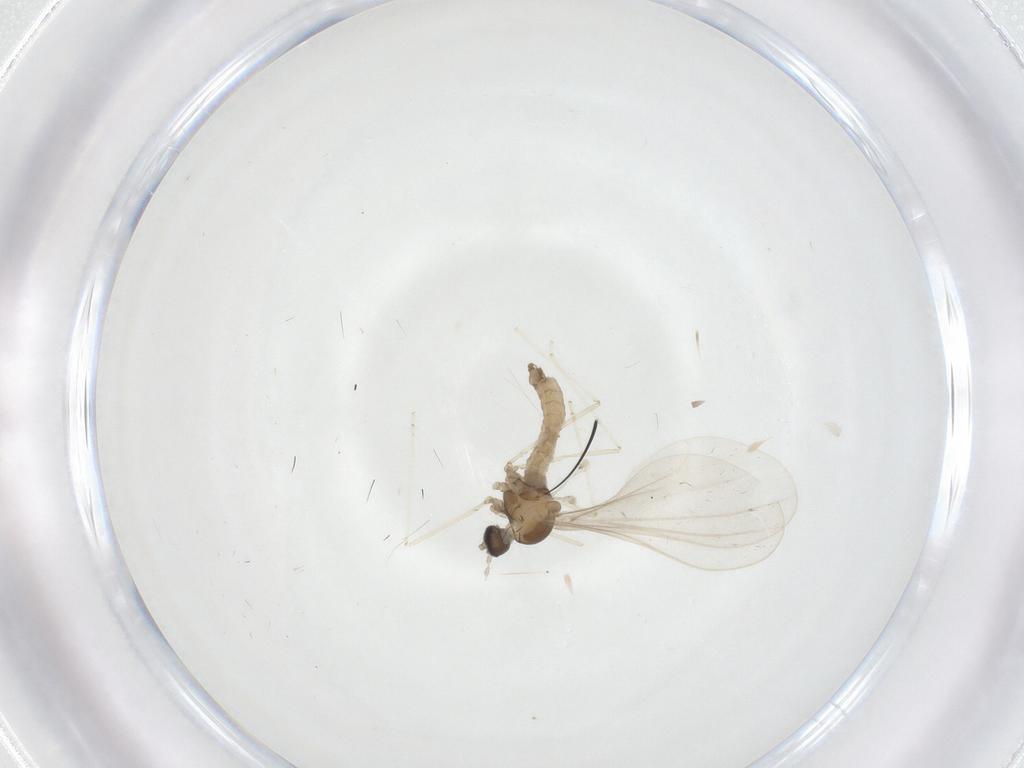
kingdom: Animalia
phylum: Arthropoda
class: Insecta
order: Diptera
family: Cecidomyiidae
